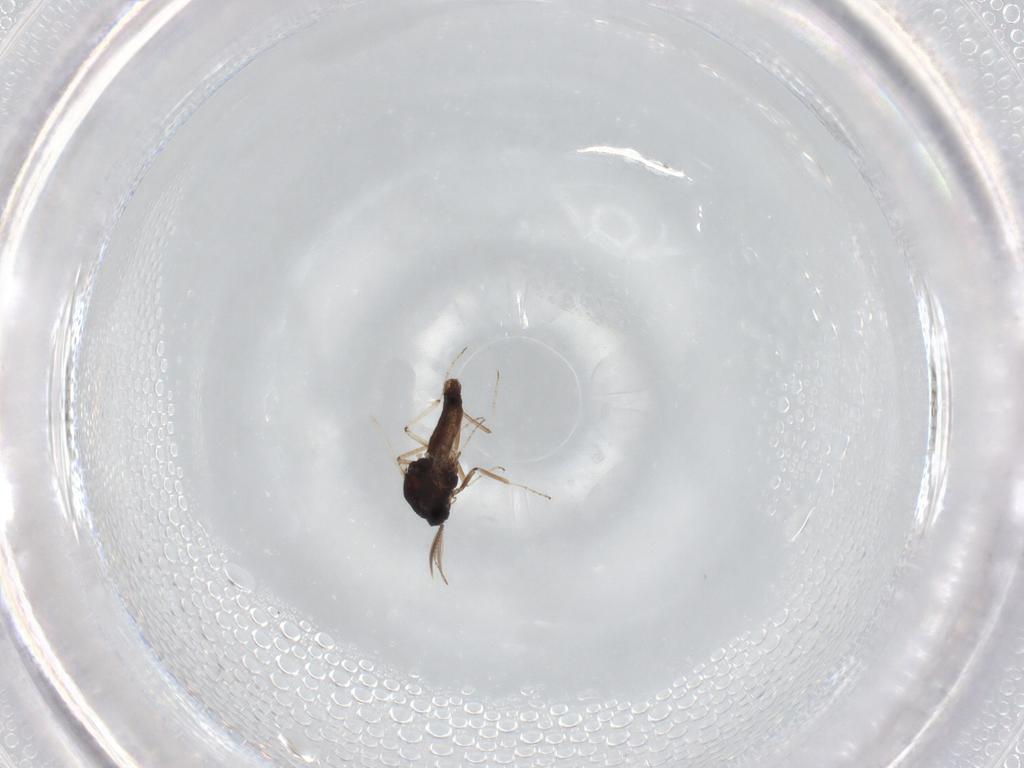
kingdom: Animalia
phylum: Arthropoda
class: Insecta
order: Diptera
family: Ceratopogonidae
